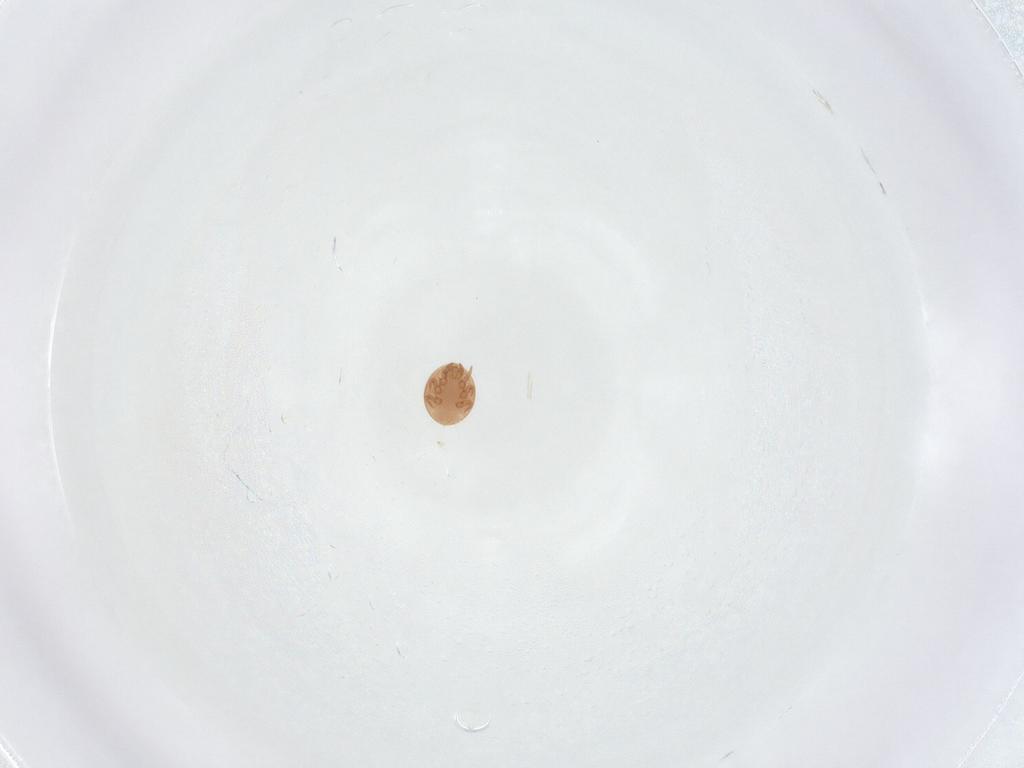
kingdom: Animalia
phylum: Arthropoda
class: Arachnida
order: Mesostigmata
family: Trematuridae
